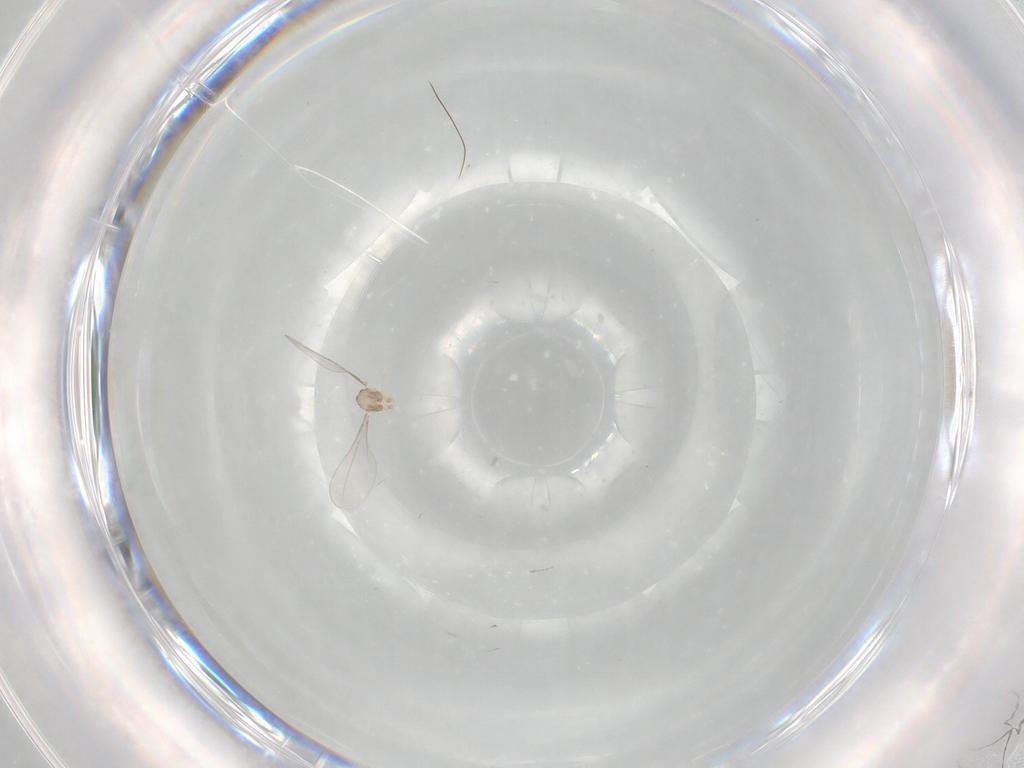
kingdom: Animalia
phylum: Arthropoda
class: Insecta
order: Diptera
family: Cecidomyiidae
